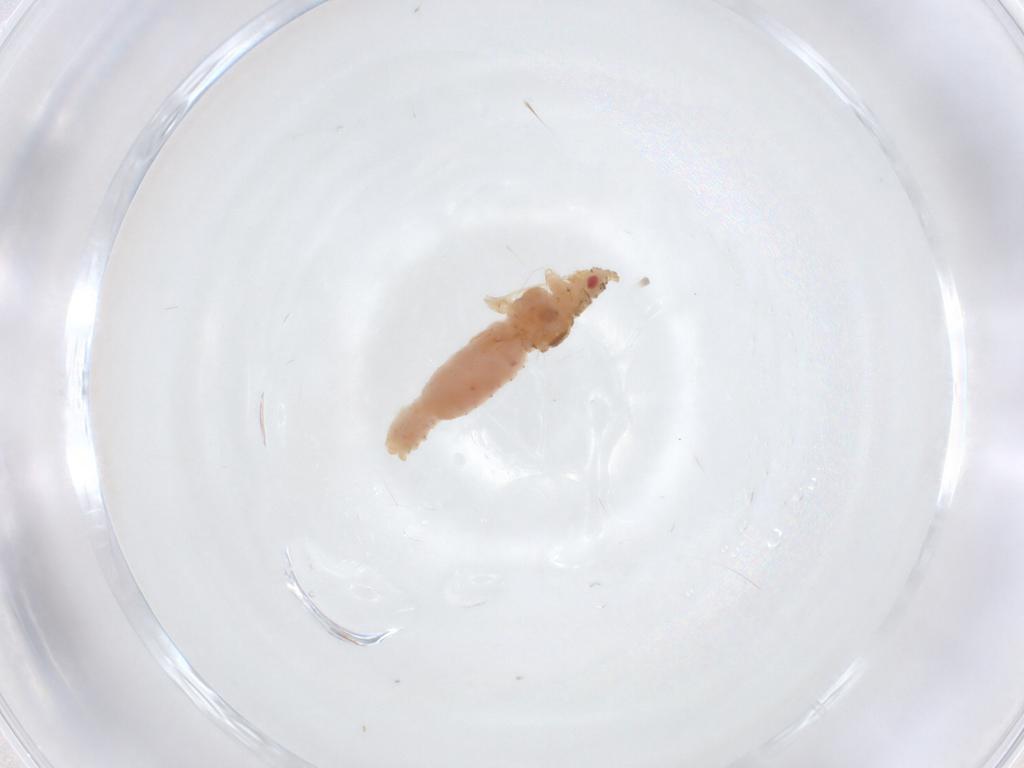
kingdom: Animalia
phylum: Arthropoda
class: Insecta
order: Hemiptera
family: Aphididae
